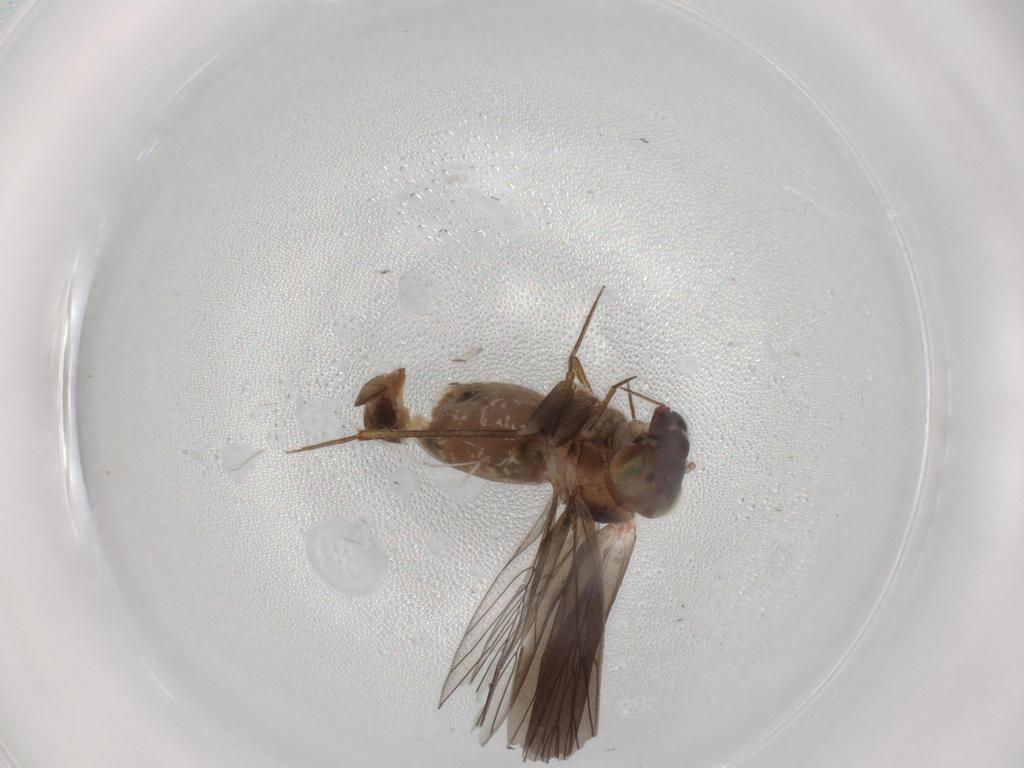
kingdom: Animalia
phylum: Arthropoda
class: Insecta
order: Psocodea
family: Lepidopsocidae
